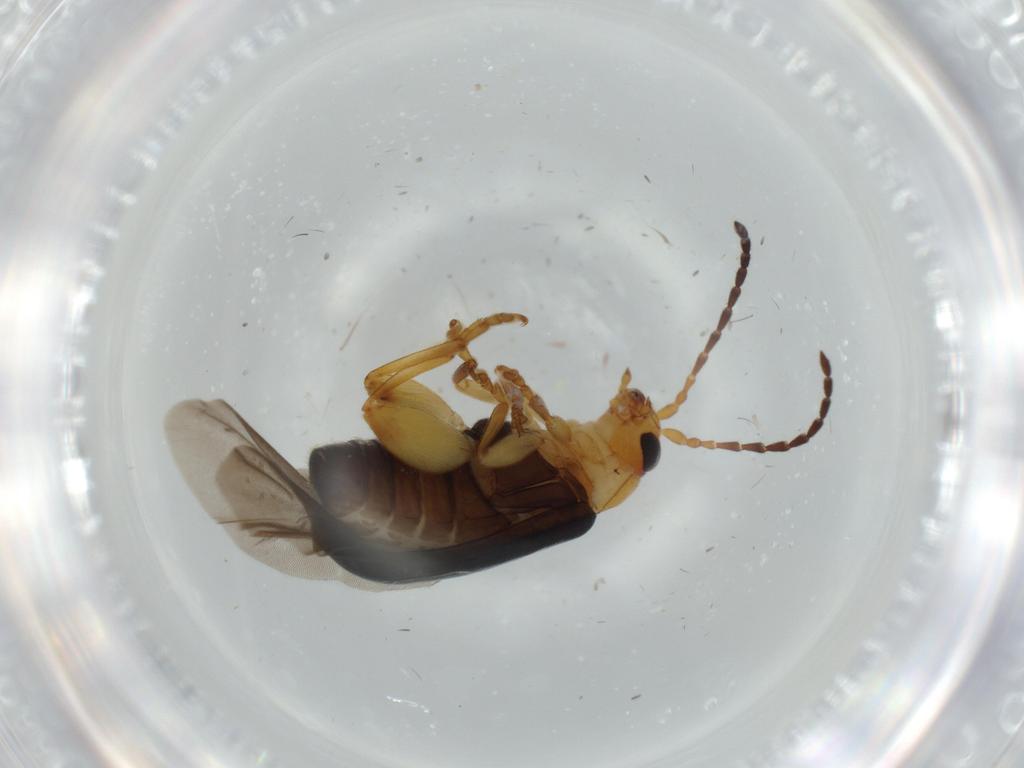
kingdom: Animalia
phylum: Arthropoda
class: Insecta
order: Coleoptera
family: Chrysomelidae
